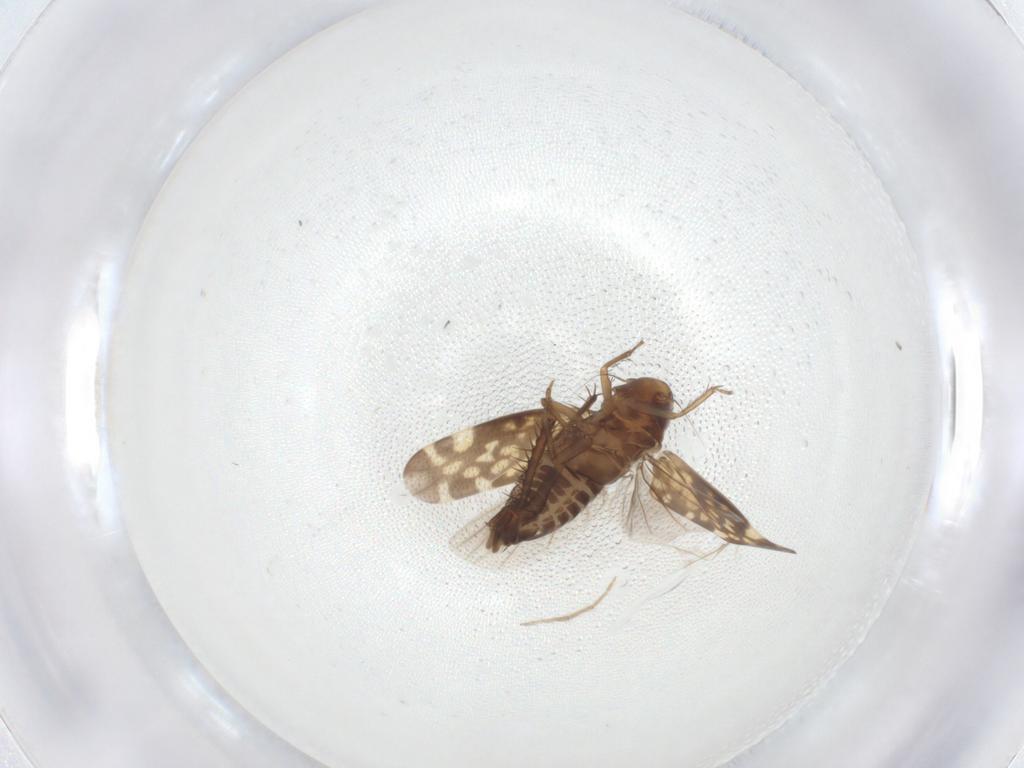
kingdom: Animalia
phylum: Arthropoda
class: Insecta
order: Hemiptera
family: Cicadellidae
